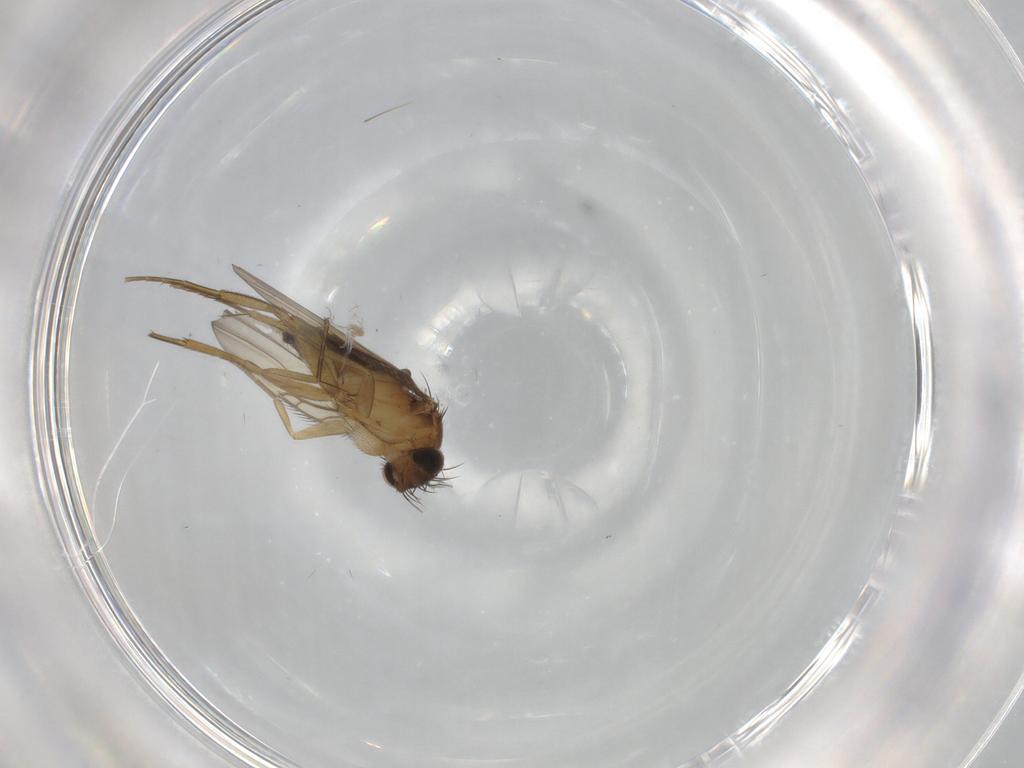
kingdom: Animalia
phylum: Arthropoda
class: Insecta
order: Diptera
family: Phoridae
